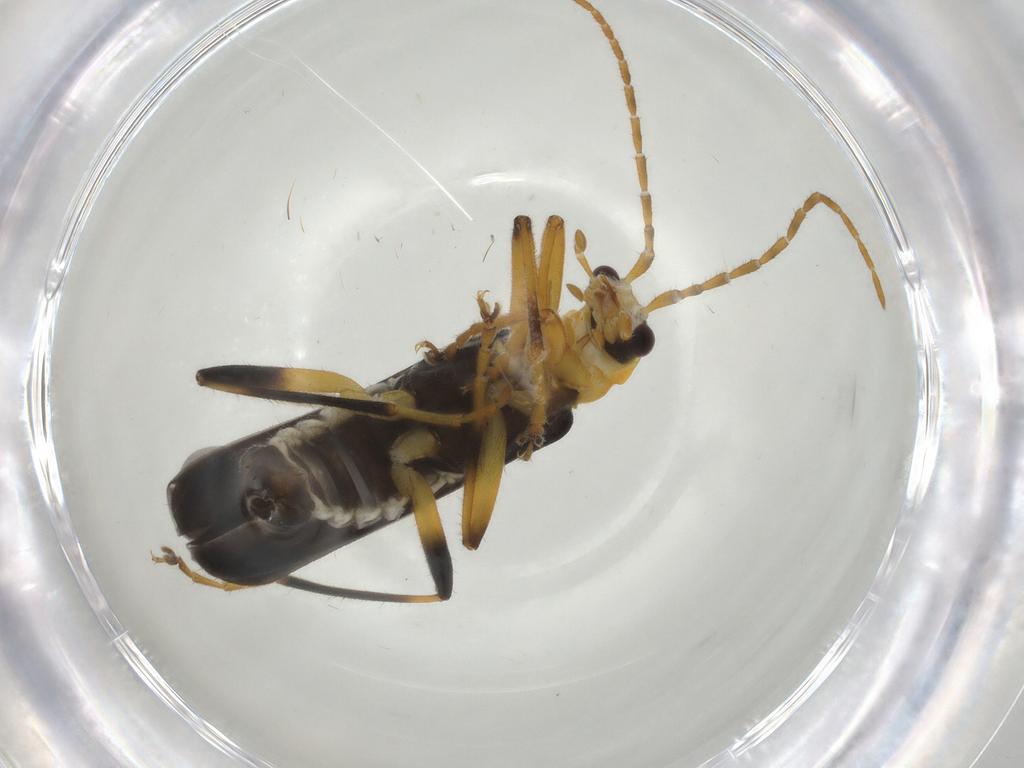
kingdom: Animalia
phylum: Arthropoda
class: Insecta
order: Coleoptera
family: Cantharidae
